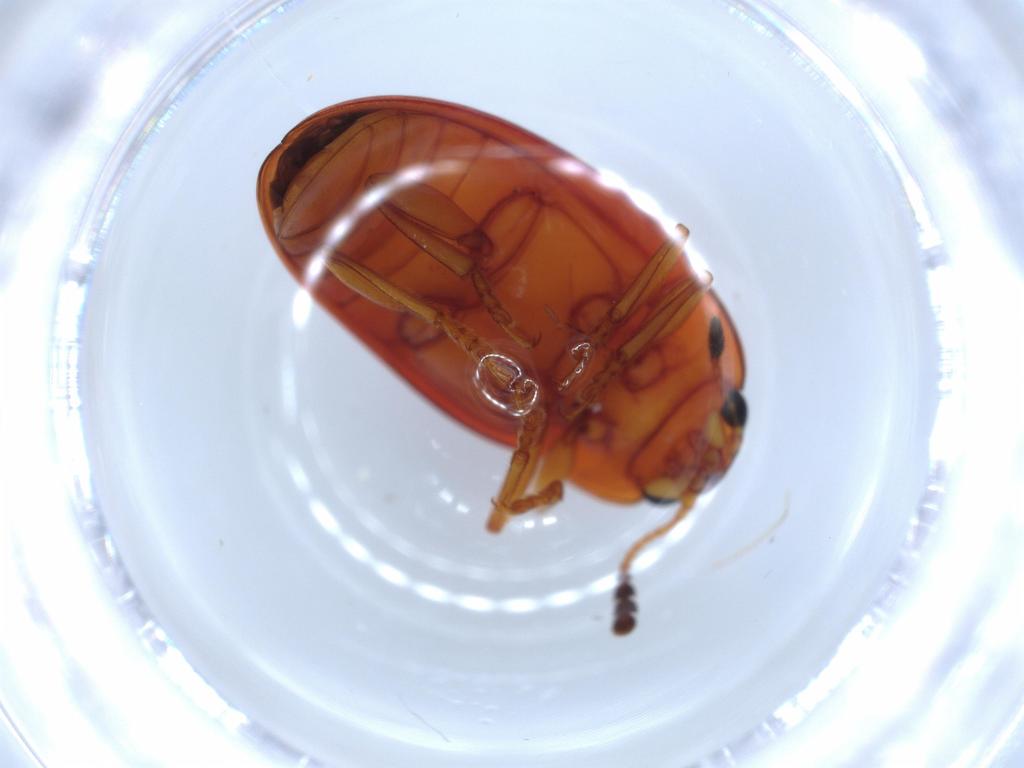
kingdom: Animalia
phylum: Arthropoda
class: Insecta
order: Coleoptera
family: Erotylidae
